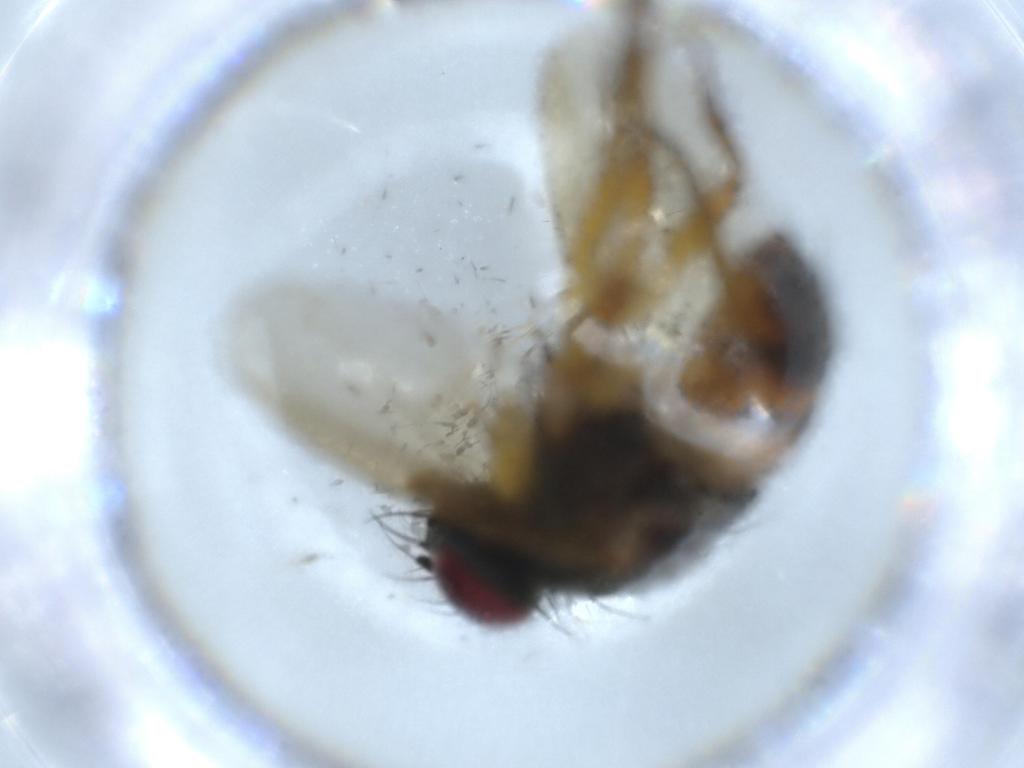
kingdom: Animalia
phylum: Arthropoda
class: Insecta
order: Diptera
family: Muscidae
